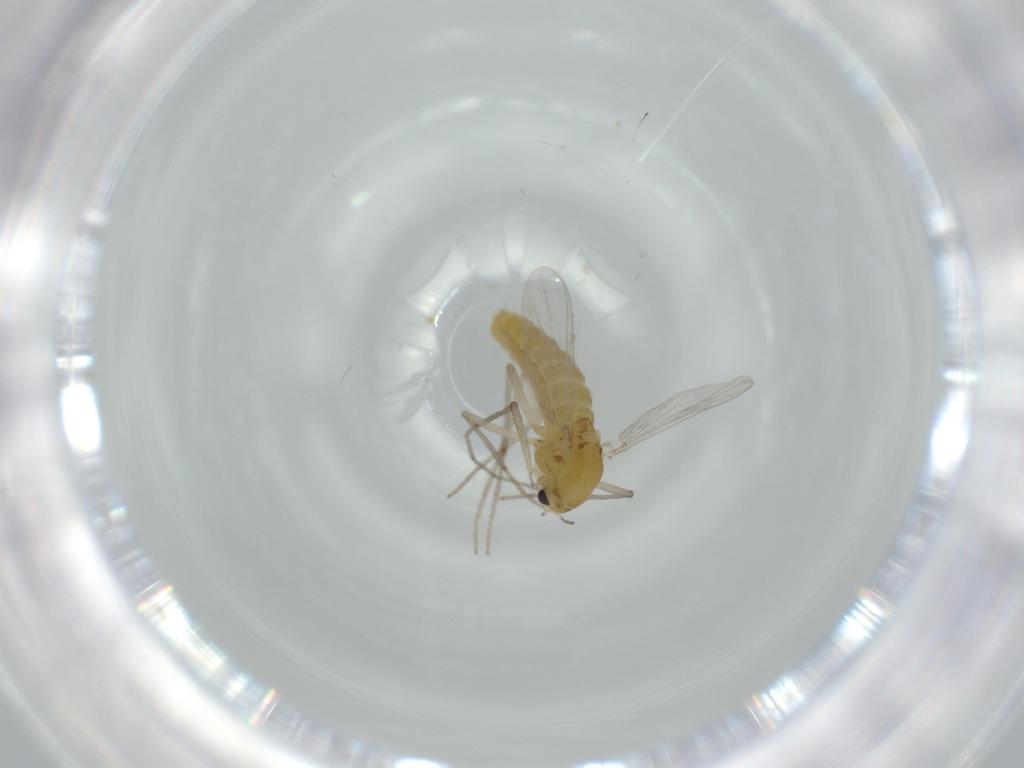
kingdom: Animalia
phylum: Arthropoda
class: Insecta
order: Diptera
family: Chironomidae
